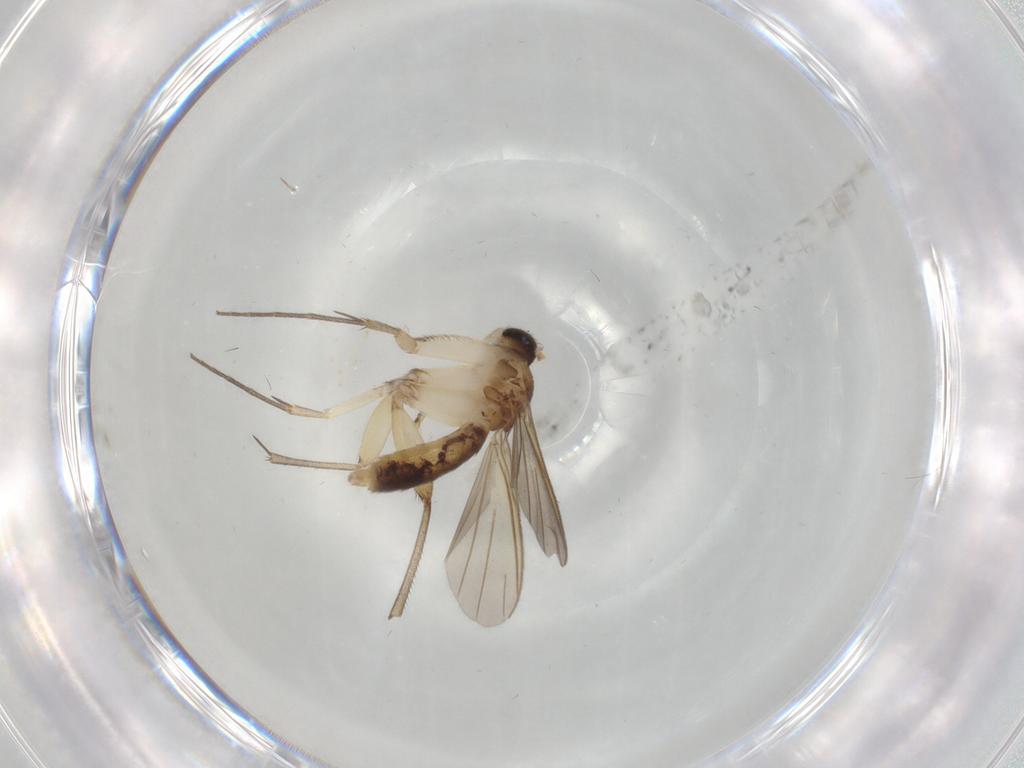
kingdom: Animalia
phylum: Arthropoda
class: Insecta
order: Diptera
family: Mycetophilidae
